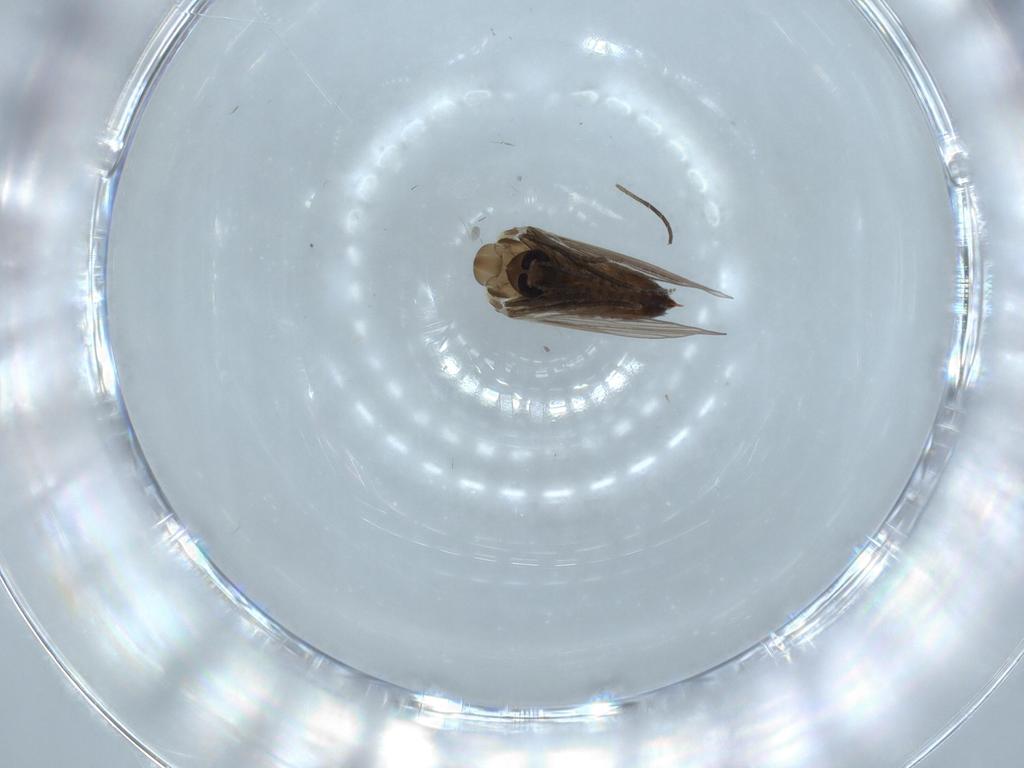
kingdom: Animalia
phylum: Arthropoda
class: Insecta
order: Diptera
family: Psychodidae
